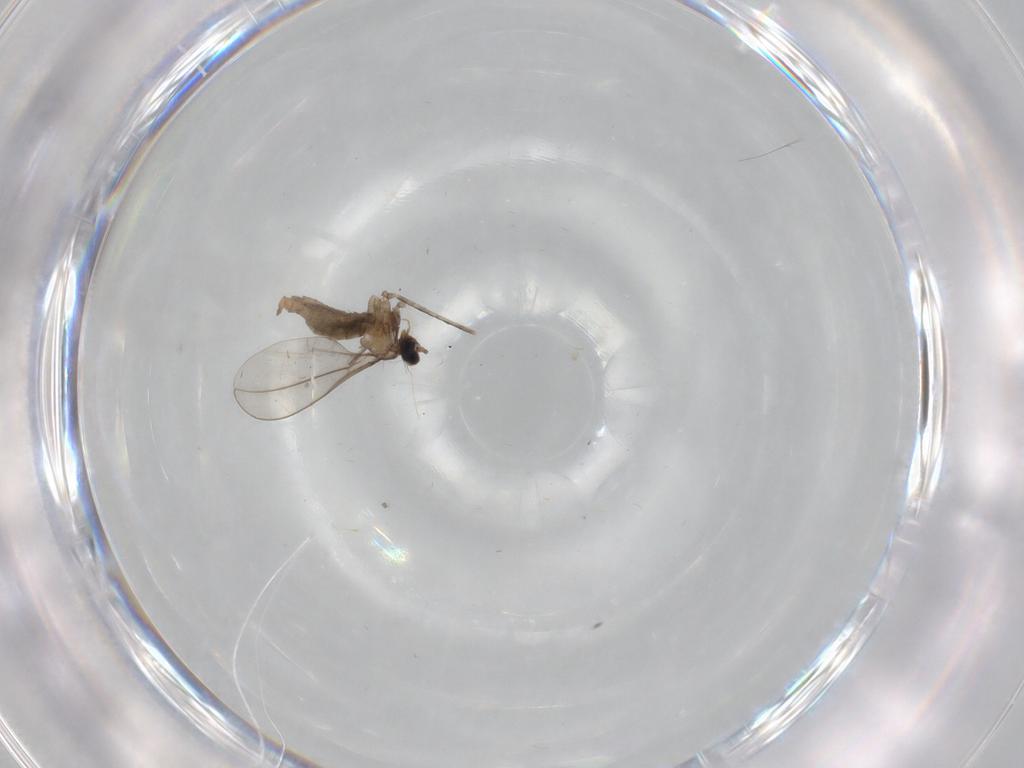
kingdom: Animalia
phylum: Arthropoda
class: Insecta
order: Diptera
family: Cecidomyiidae
